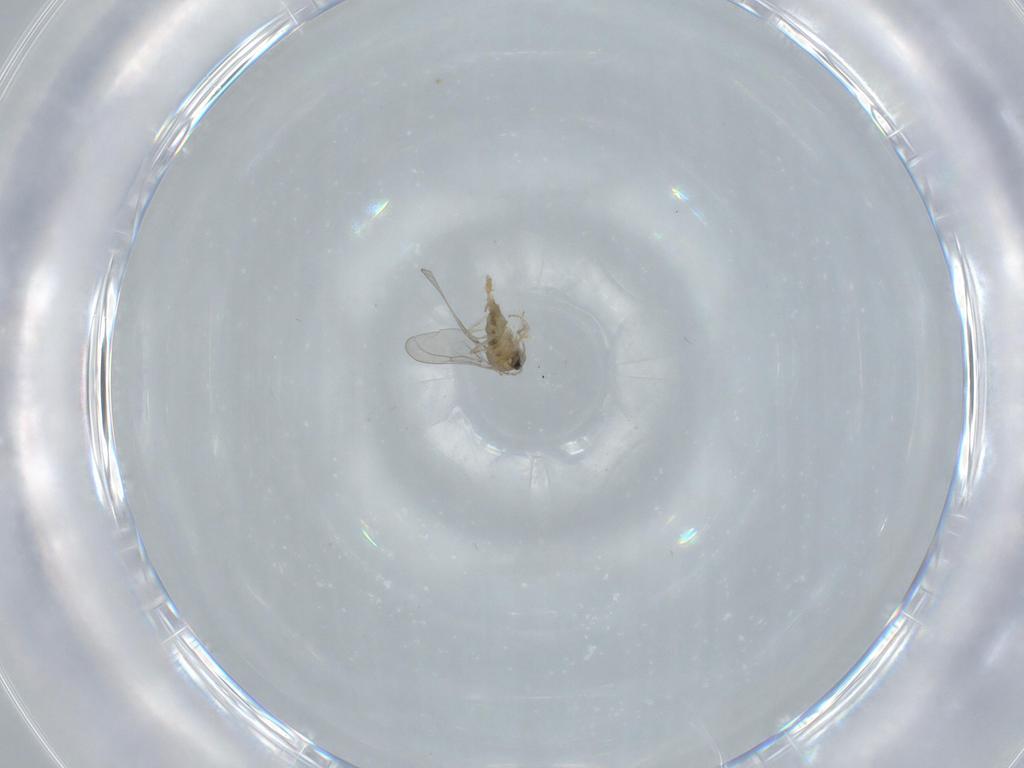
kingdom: Animalia
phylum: Arthropoda
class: Insecta
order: Diptera
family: Cecidomyiidae
